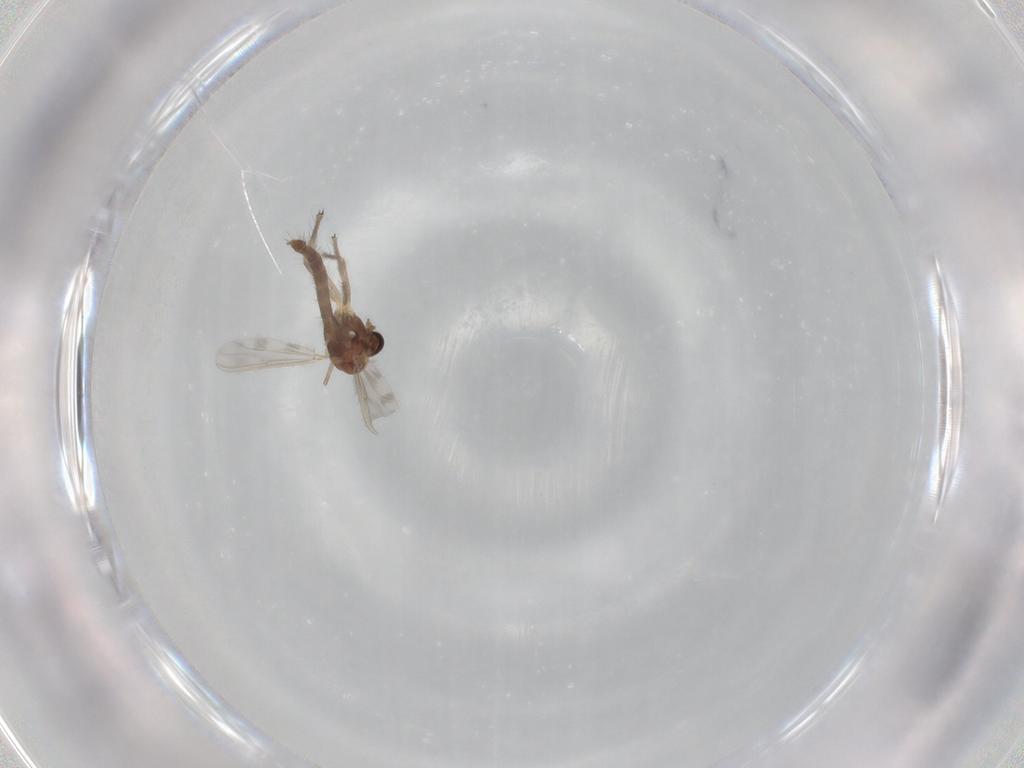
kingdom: Animalia
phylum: Arthropoda
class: Insecta
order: Diptera
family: Chironomidae
